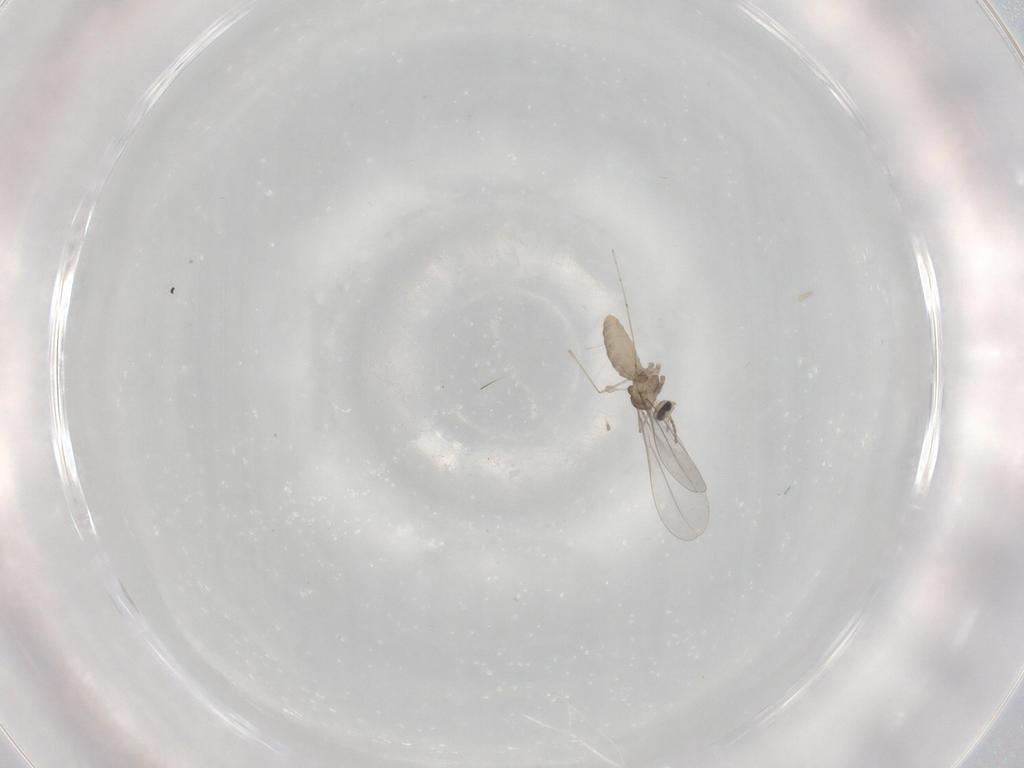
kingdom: Animalia
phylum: Arthropoda
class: Insecta
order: Diptera
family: Cecidomyiidae
